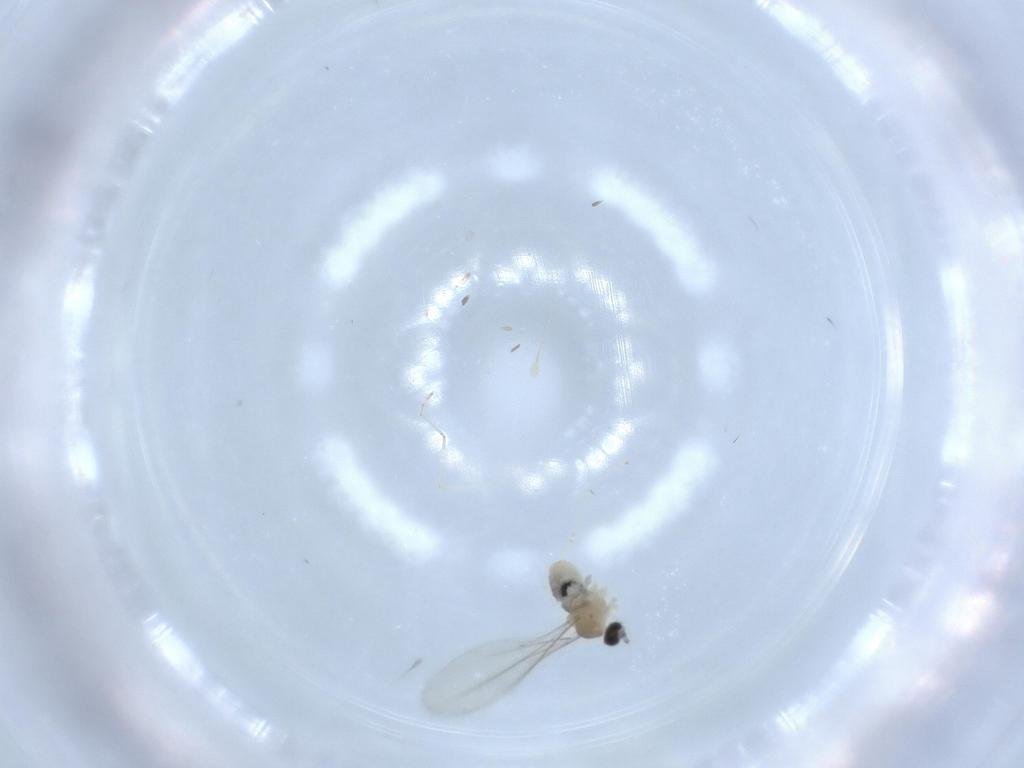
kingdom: Animalia
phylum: Arthropoda
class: Insecta
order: Diptera
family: Cecidomyiidae
